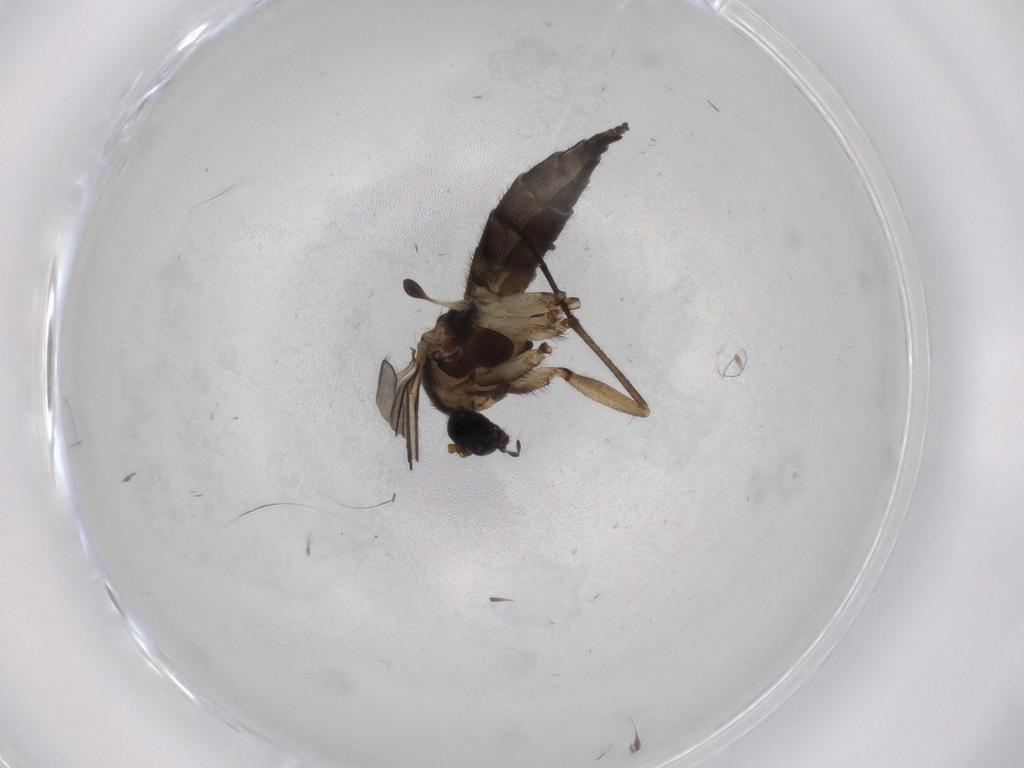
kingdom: Animalia
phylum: Arthropoda
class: Insecta
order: Diptera
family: Sciaridae
